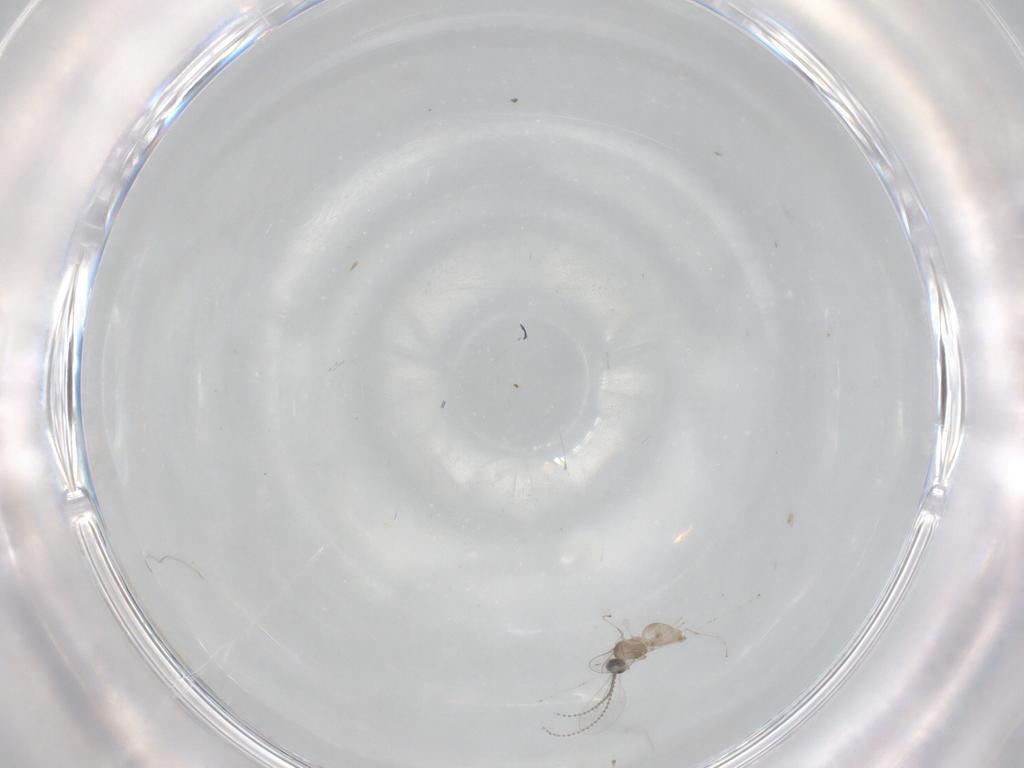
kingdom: Animalia
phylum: Arthropoda
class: Insecta
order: Diptera
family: Cecidomyiidae
